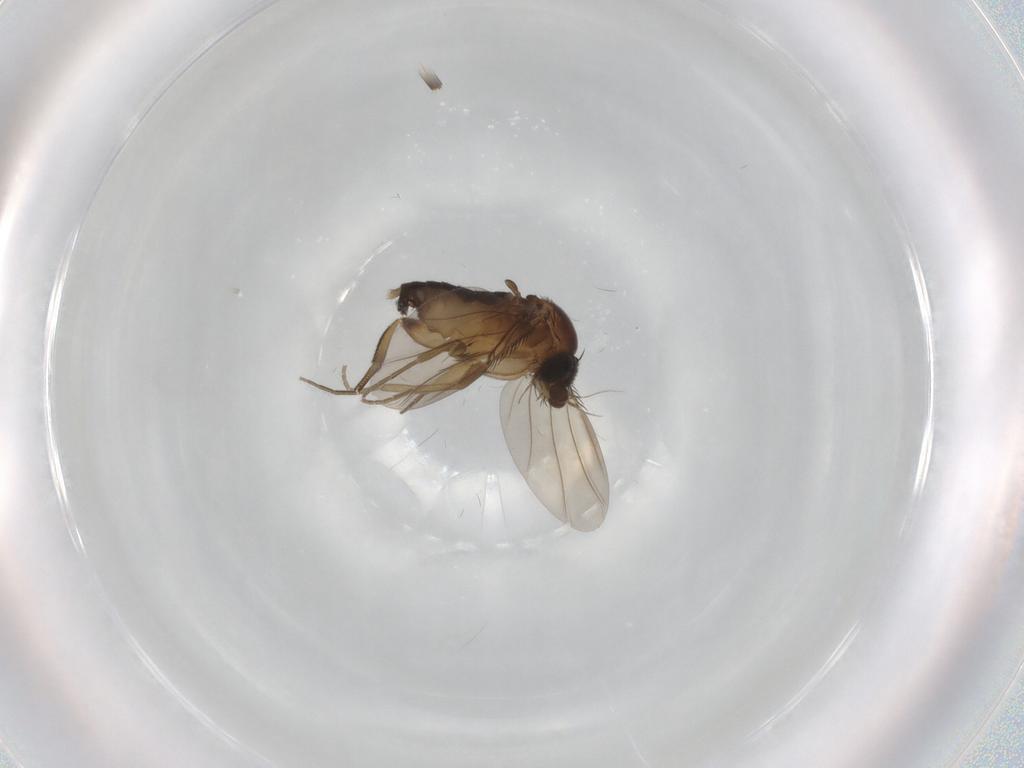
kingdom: Animalia
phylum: Arthropoda
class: Insecta
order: Diptera
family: Phoridae
